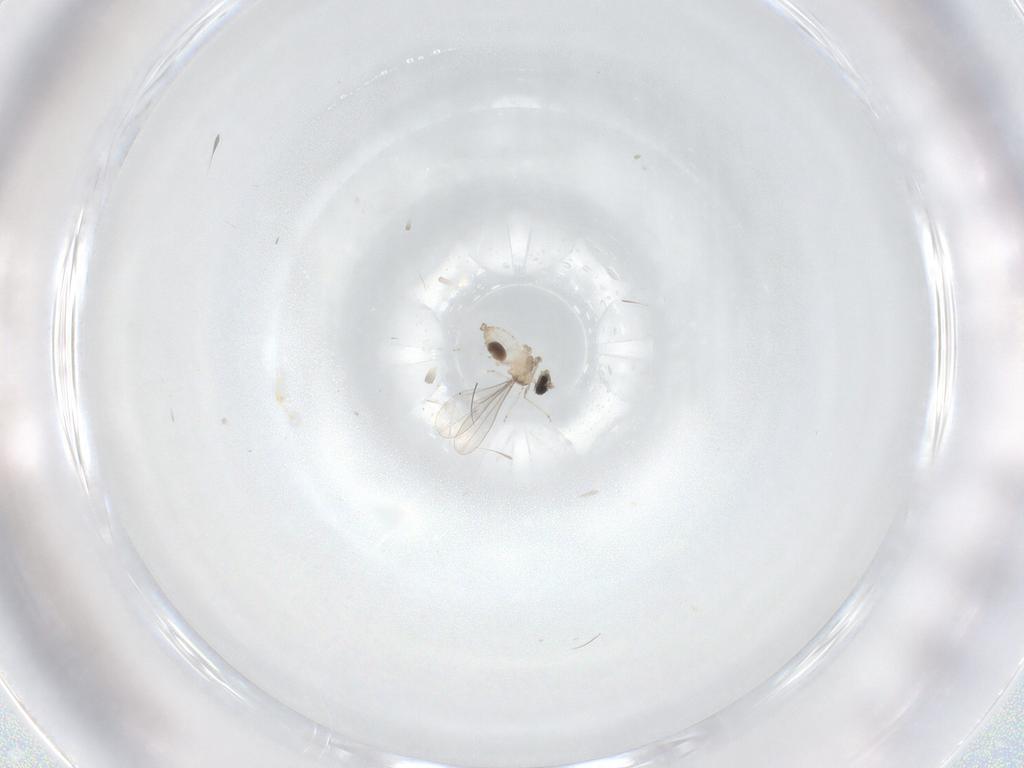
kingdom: Animalia
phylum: Arthropoda
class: Insecta
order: Diptera
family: Cecidomyiidae
